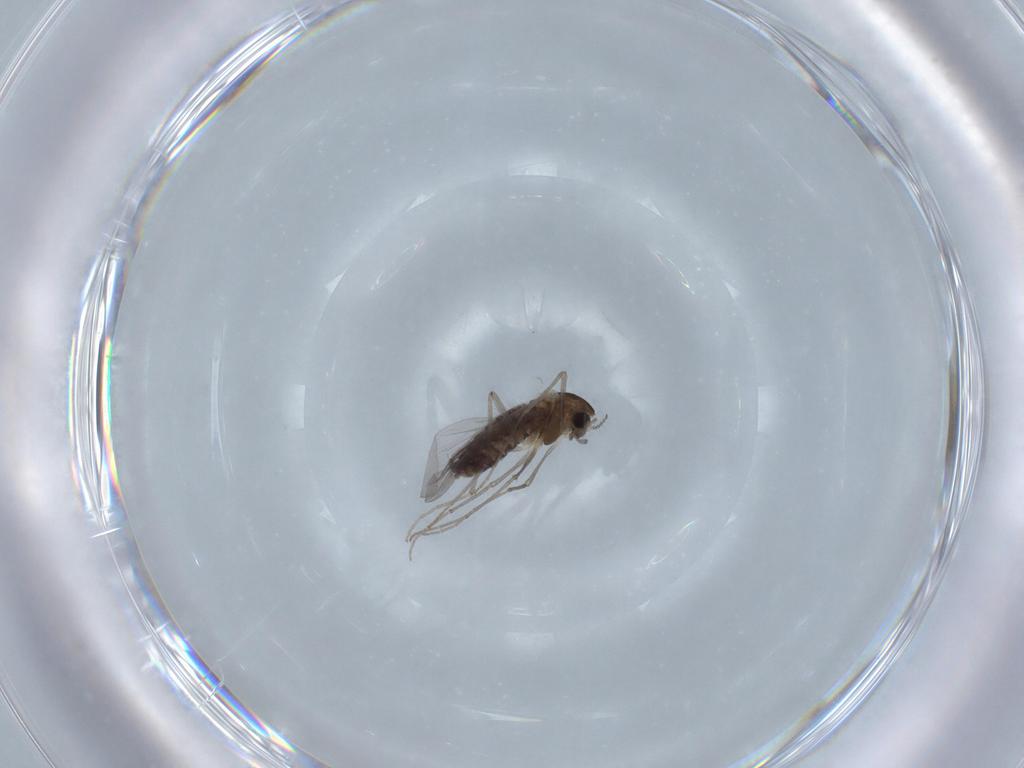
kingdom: Animalia
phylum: Arthropoda
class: Insecta
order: Diptera
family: Chironomidae
